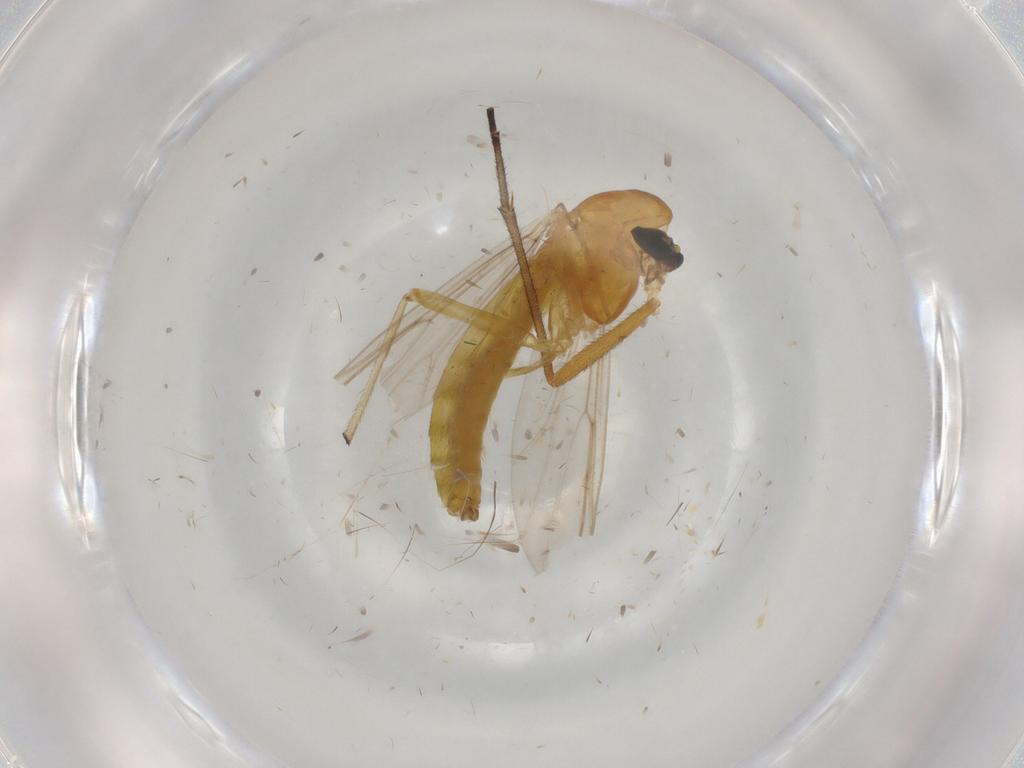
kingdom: Animalia
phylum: Arthropoda
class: Insecta
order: Diptera
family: Chironomidae
